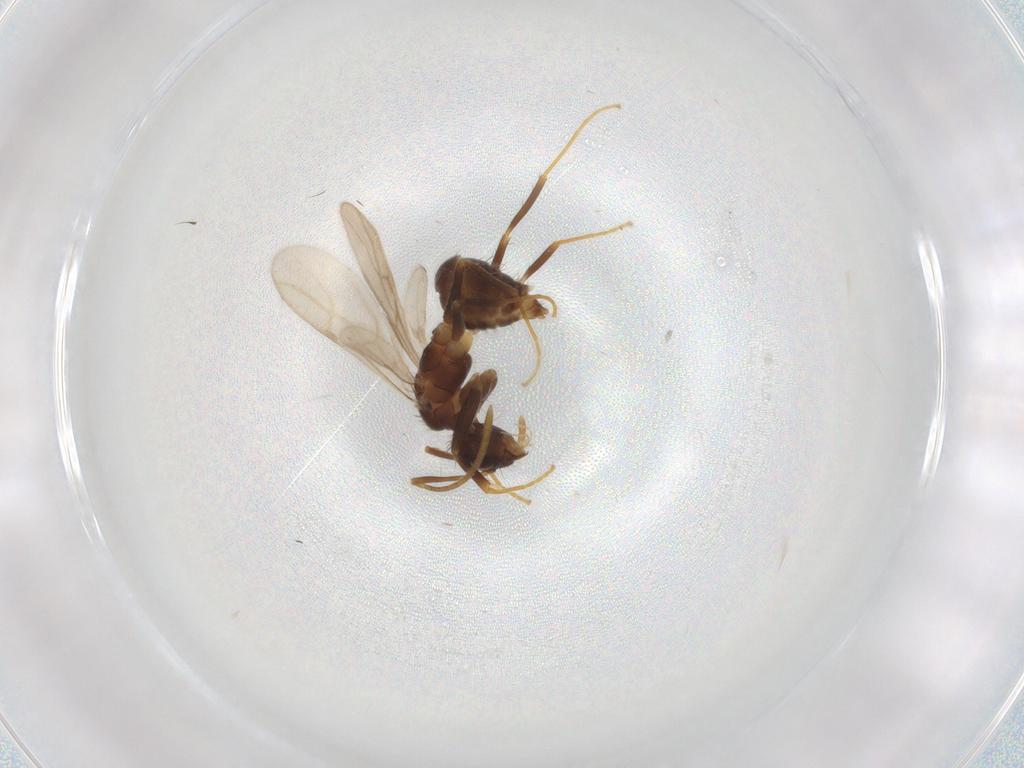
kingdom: Animalia
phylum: Arthropoda
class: Insecta
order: Hymenoptera
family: Formicidae
